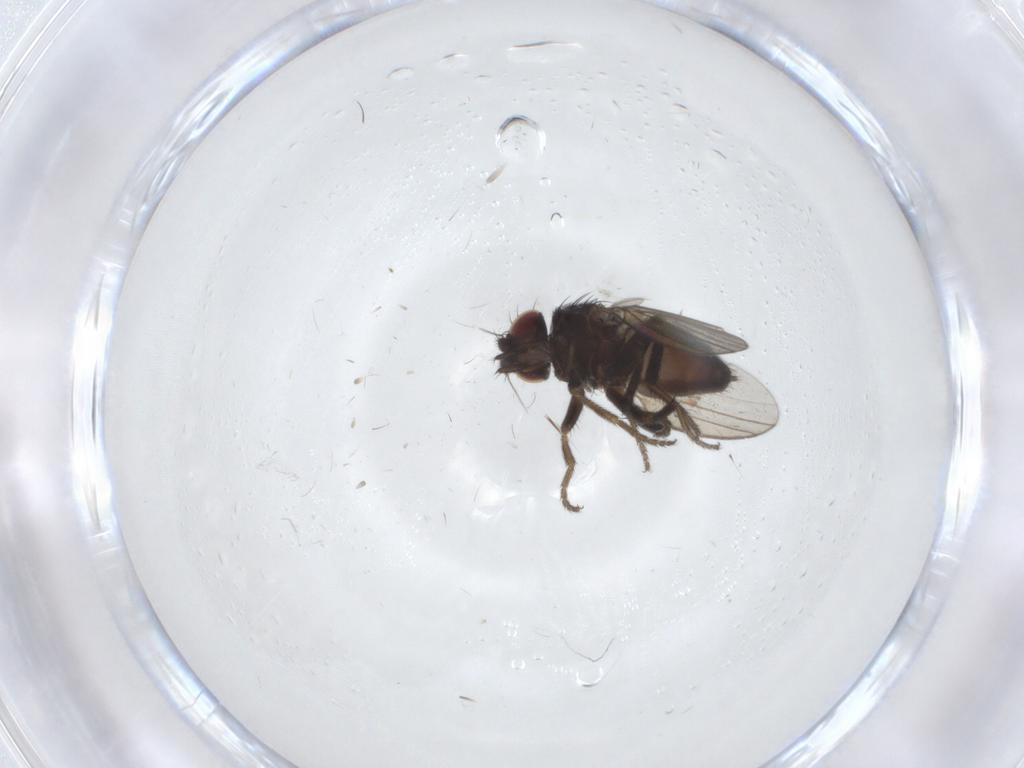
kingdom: Animalia
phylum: Arthropoda
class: Insecta
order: Diptera
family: Milichiidae
